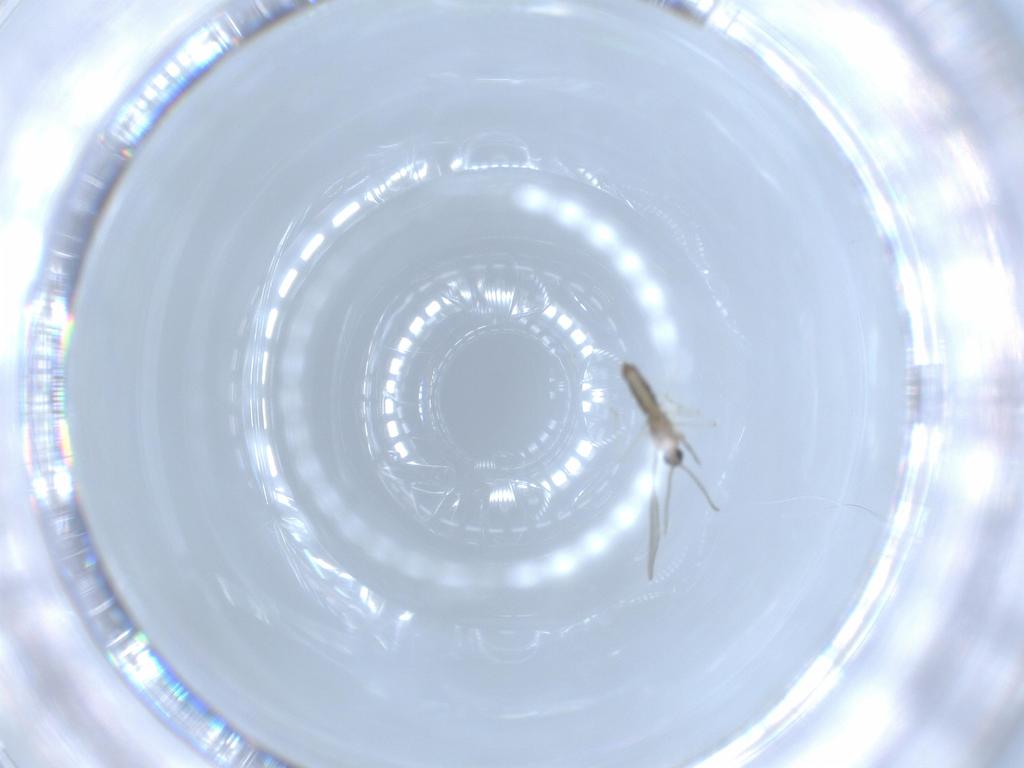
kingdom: Animalia
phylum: Arthropoda
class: Insecta
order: Diptera
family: Cecidomyiidae
